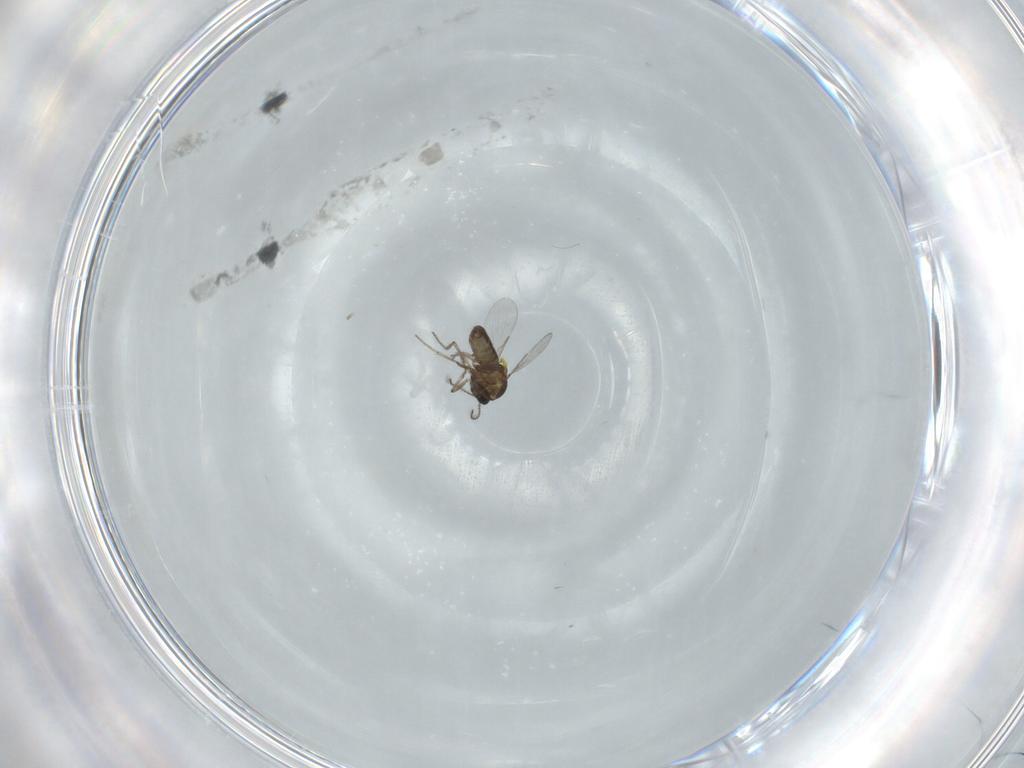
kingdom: Animalia
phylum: Arthropoda
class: Insecta
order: Diptera
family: Ceratopogonidae
